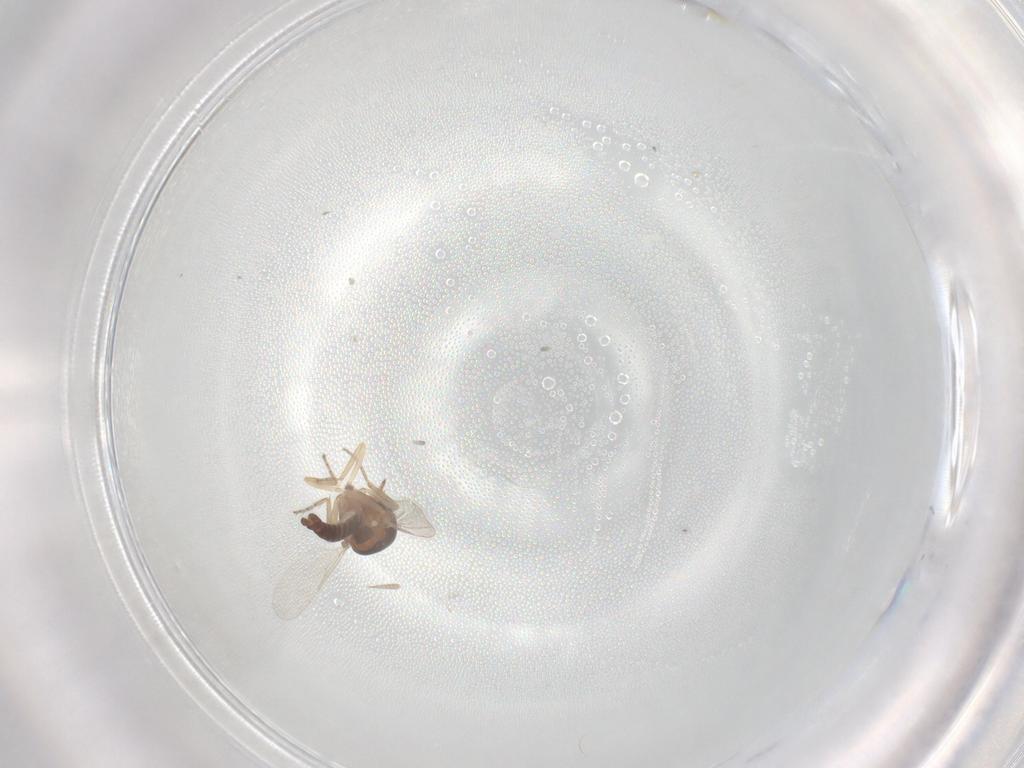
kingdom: Animalia
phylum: Arthropoda
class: Insecta
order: Diptera
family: Ceratopogonidae
